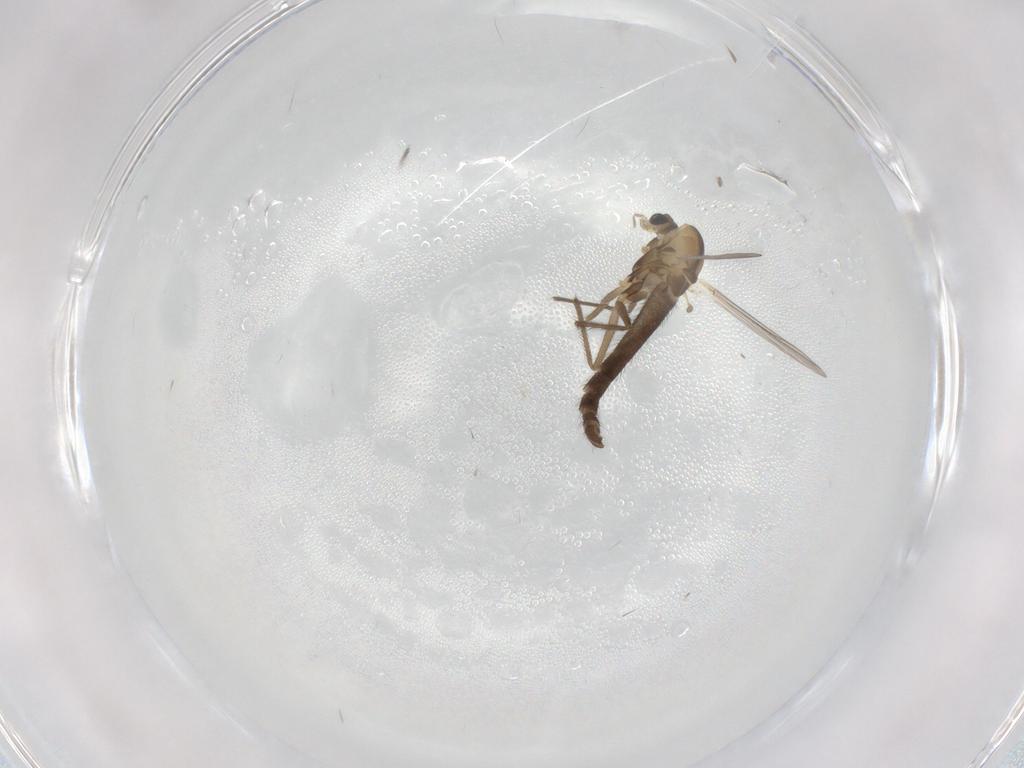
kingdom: Animalia
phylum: Arthropoda
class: Insecta
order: Diptera
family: Chironomidae
